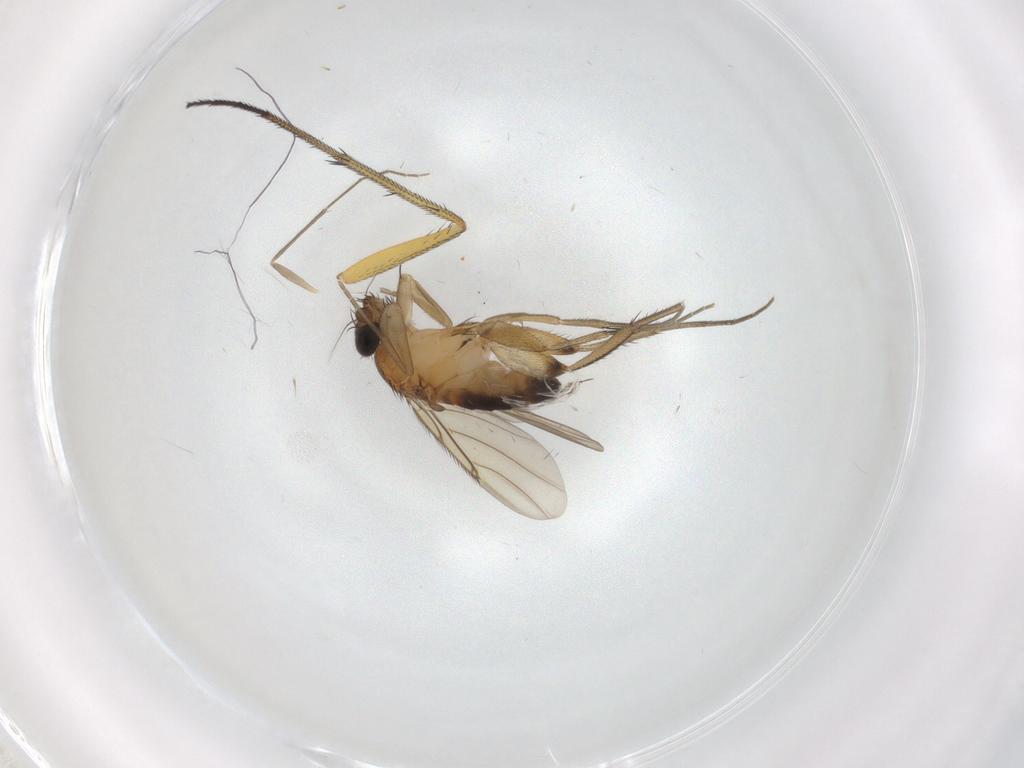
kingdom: Animalia
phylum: Arthropoda
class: Insecta
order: Diptera
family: Phoridae
